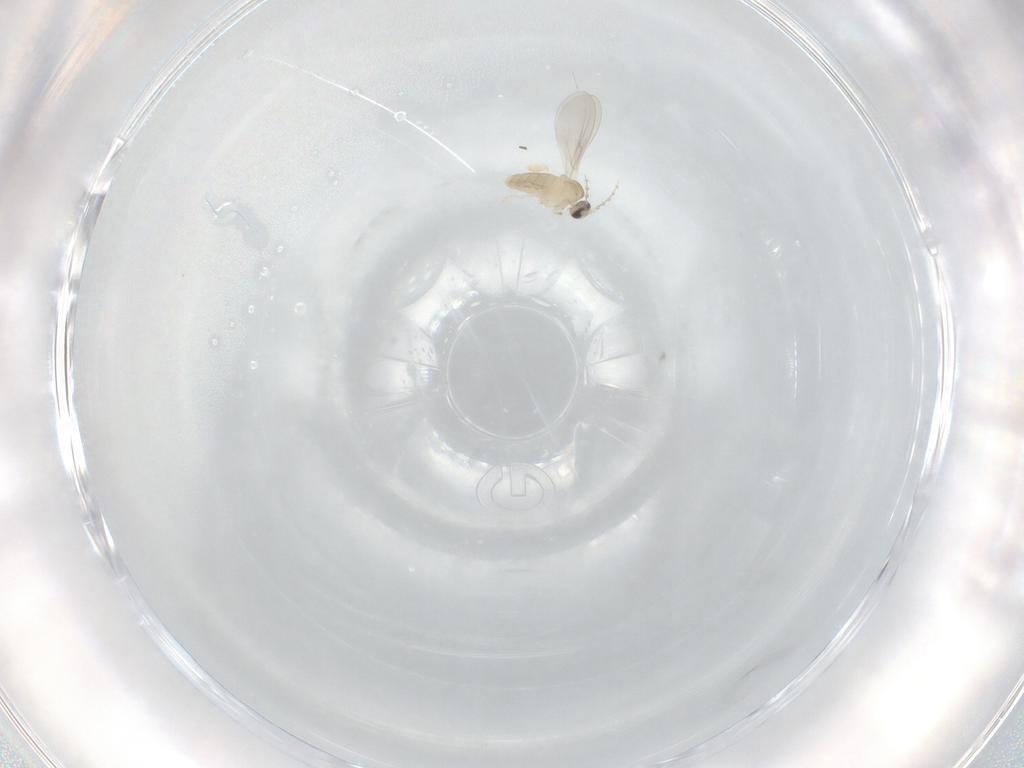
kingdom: Animalia
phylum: Arthropoda
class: Insecta
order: Diptera
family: Cecidomyiidae
